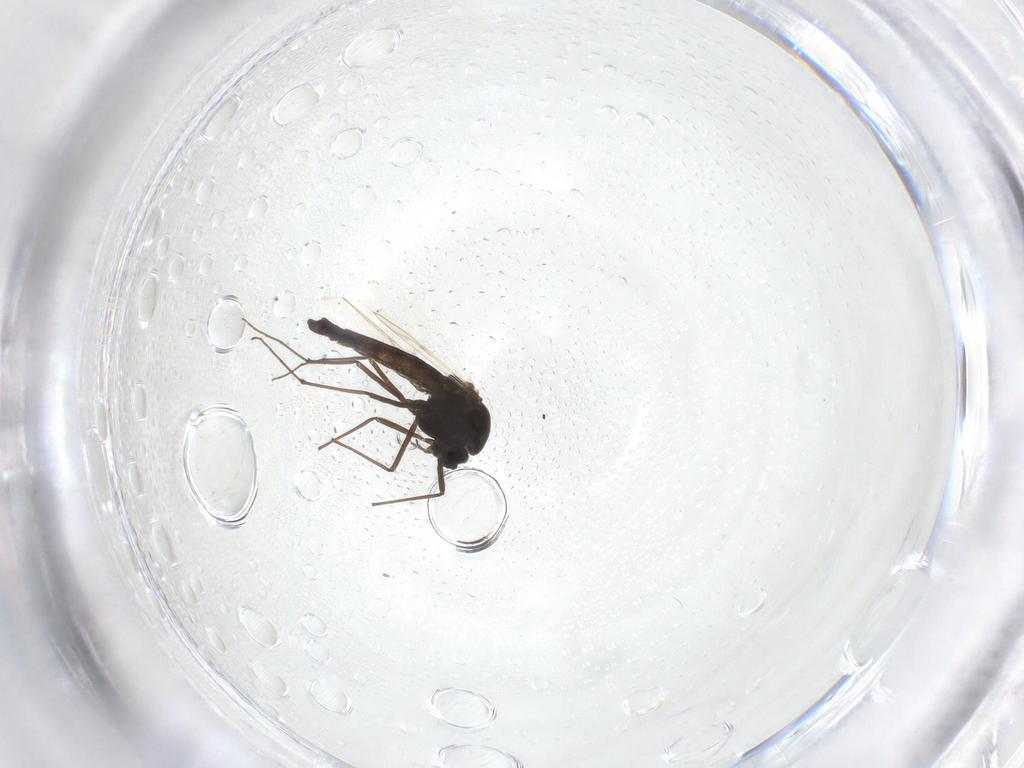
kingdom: Animalia
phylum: Arthropoda
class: Insecta
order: Diptera
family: Chironomidae
